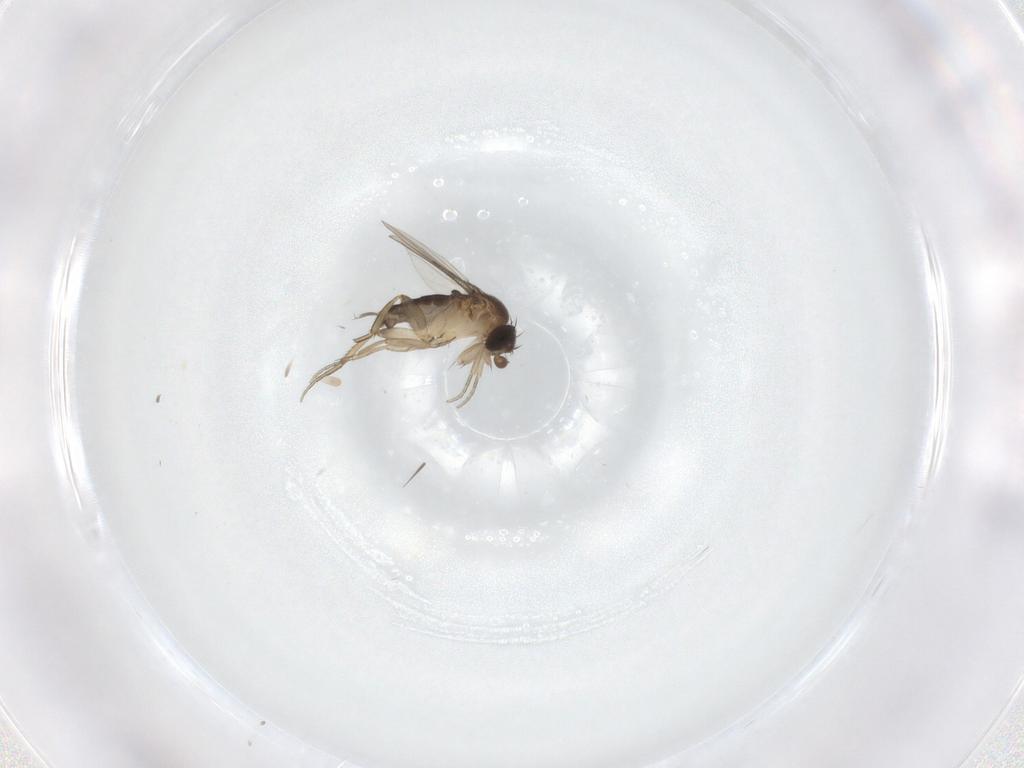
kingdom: Animalia
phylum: Arthropoda
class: Insecta
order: Diptera
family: Phoridae
